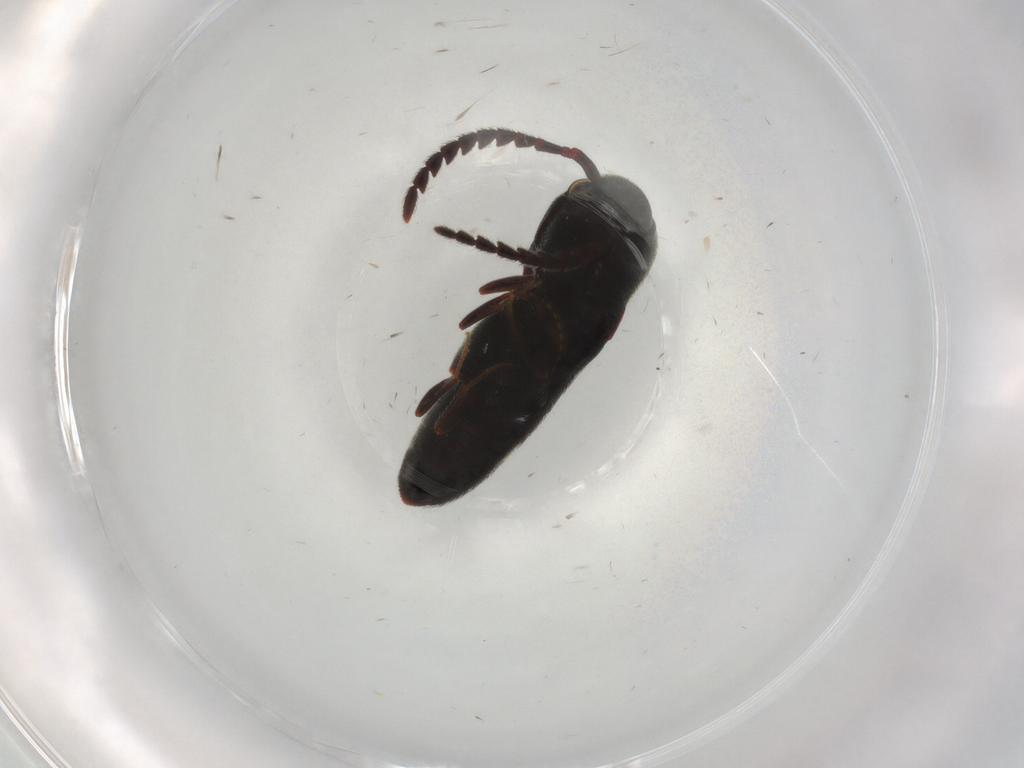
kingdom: Animalia
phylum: Arthropoda
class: Insecta
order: Coleoptera
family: Eucnemidae
